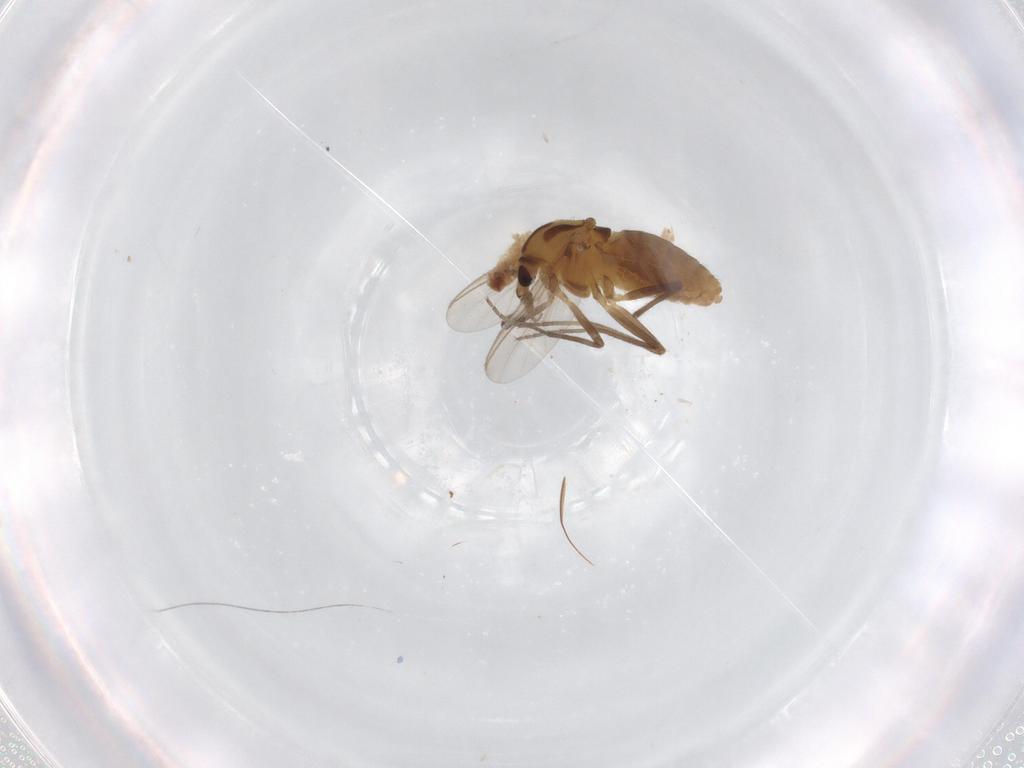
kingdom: Animalia
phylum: Arthropoda
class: Insecta
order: Diptera
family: Chironomidae
